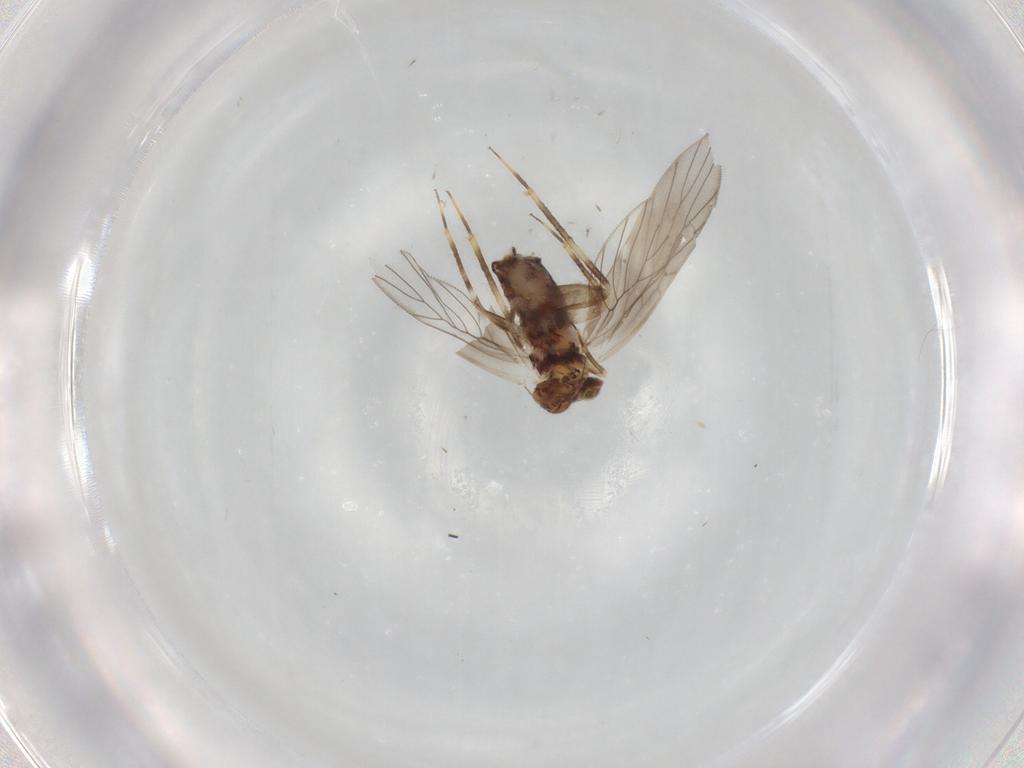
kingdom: Animalia
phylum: Arthropoda
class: Insecta
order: Psocodea
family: Lepidopsocidae
